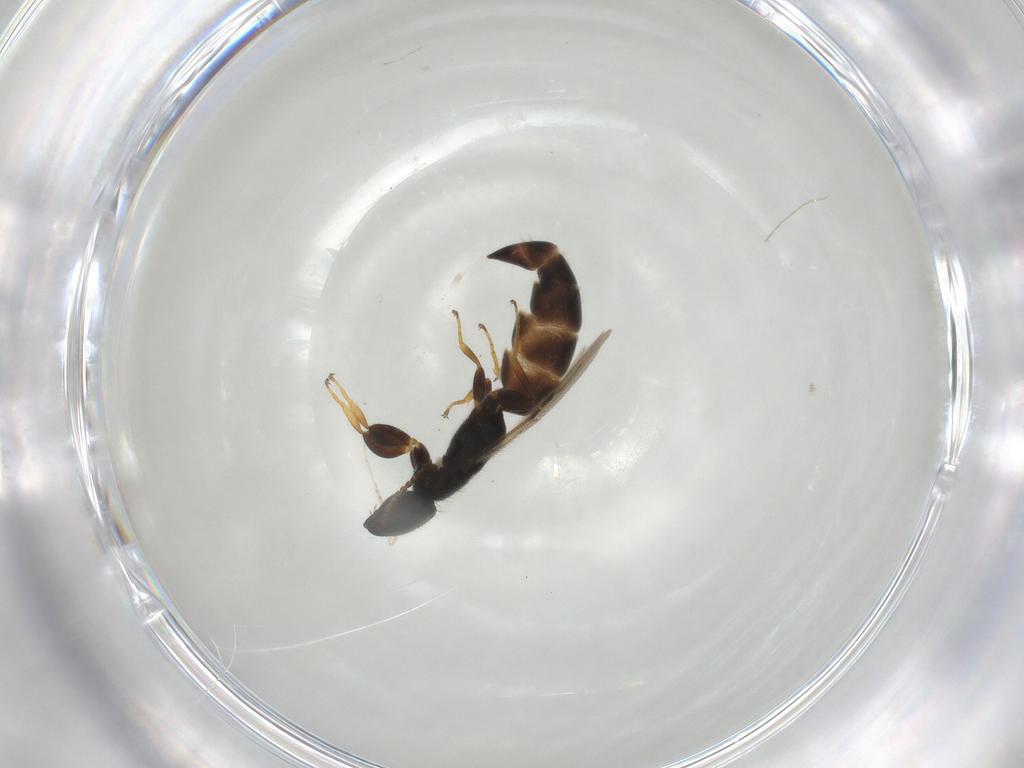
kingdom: Animalia
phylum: Arthropoda
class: Insecta
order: Hymenoptera
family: Bethylidae
